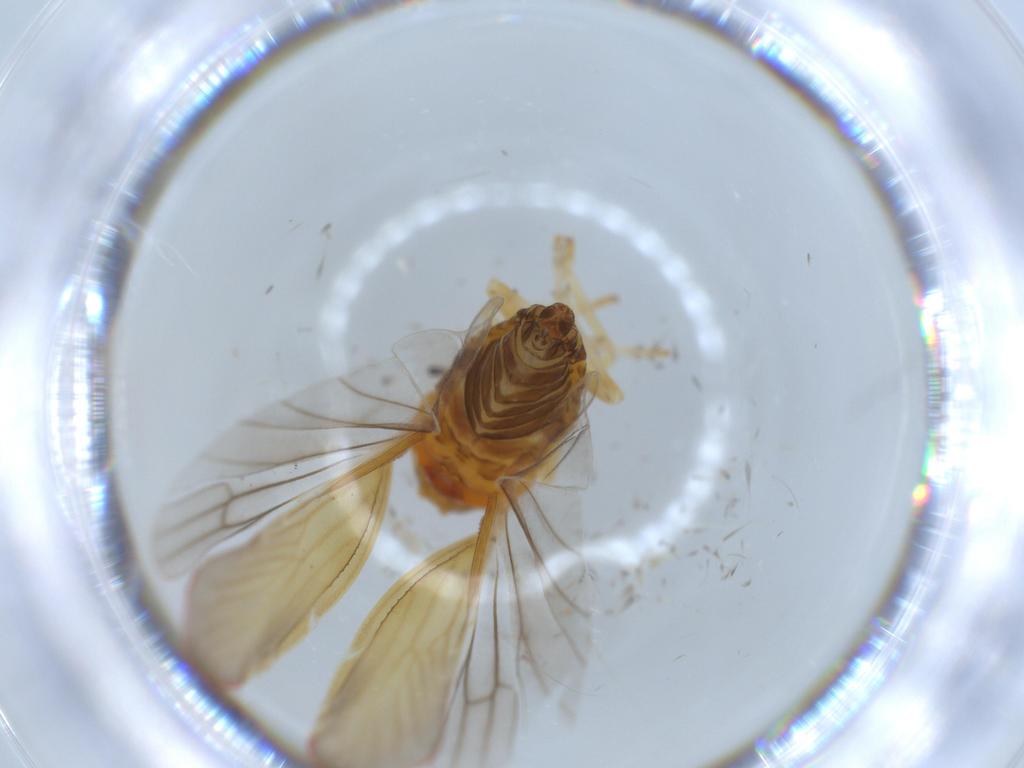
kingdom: Animalia
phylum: Arthropoda
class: Insecta
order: Hemiptera
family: Derbidae
